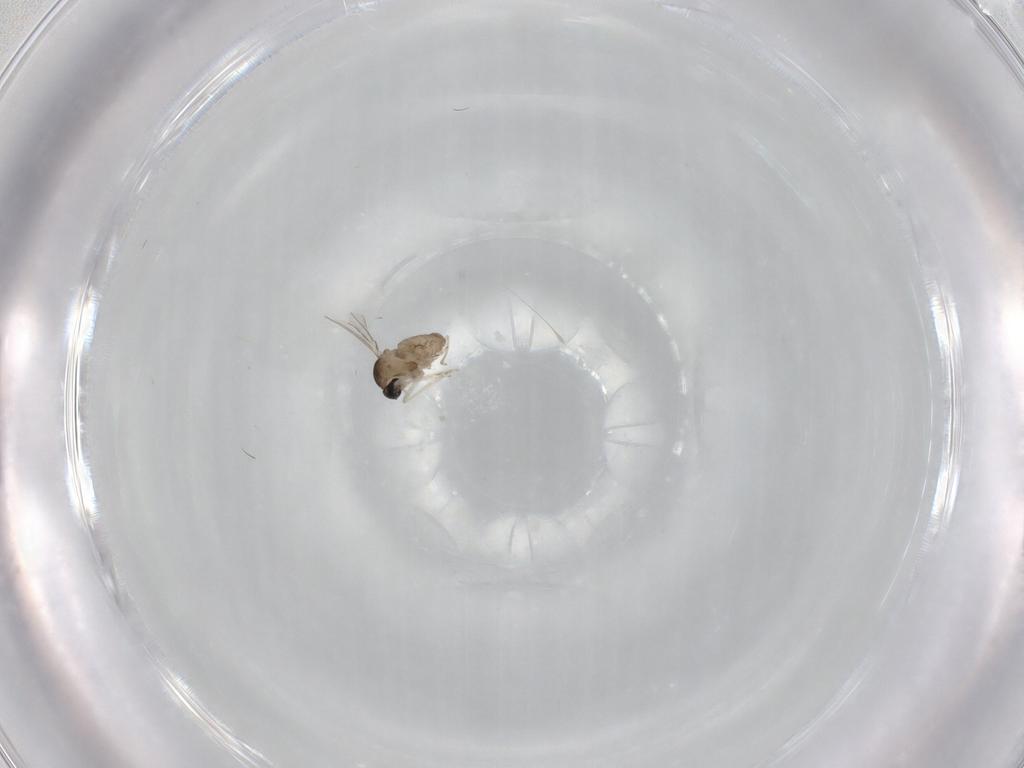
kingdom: Animalia
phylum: Arthropoda
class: Insecta
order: Diptera
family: Cecidomyiidae
